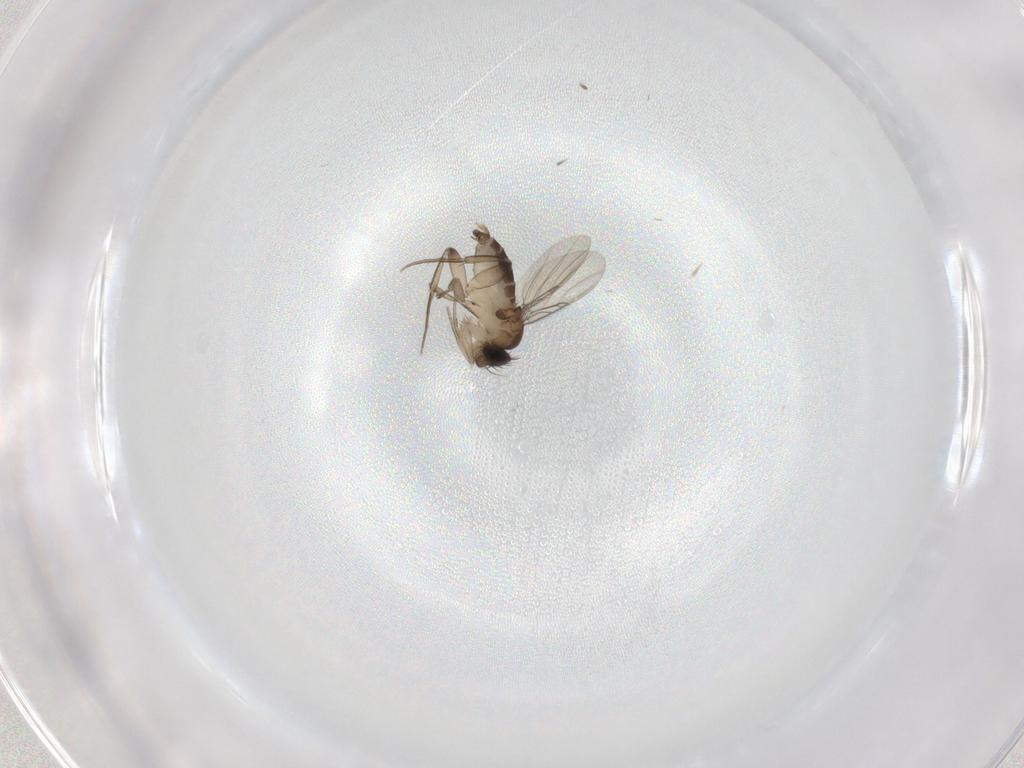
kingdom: Animalia
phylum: Arthropoda
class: Insecta
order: Diptera
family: Phoridae
